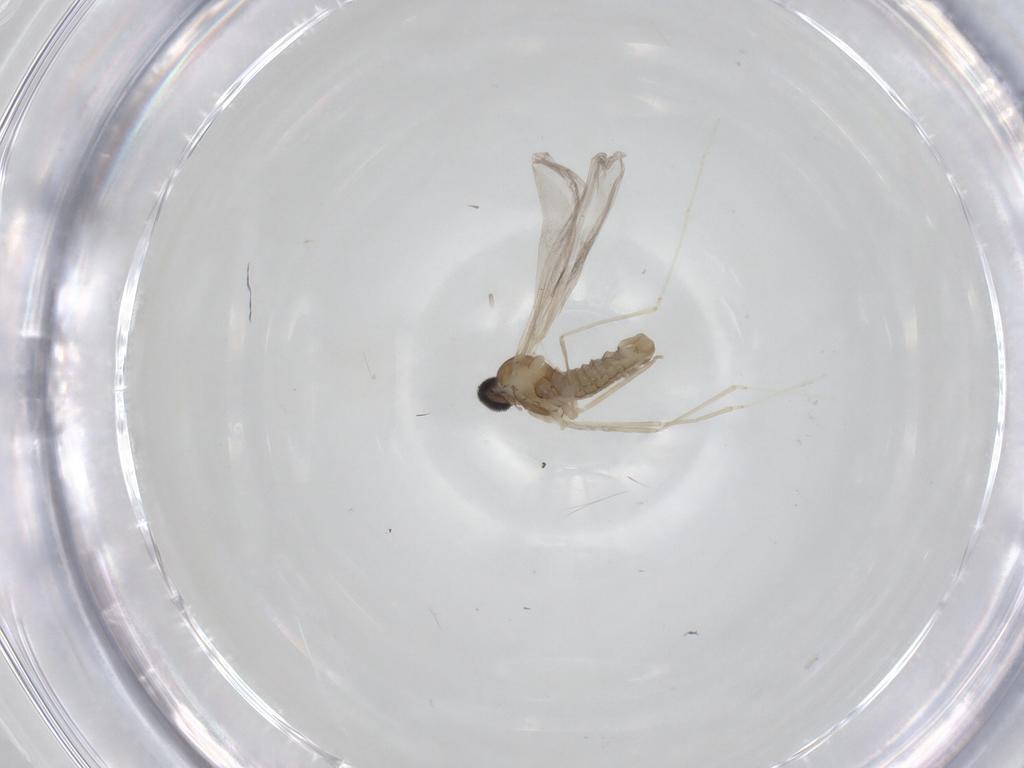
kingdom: Animalia
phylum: Arthropoda
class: Insecta
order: Diptera
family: Cecidomyiidae
